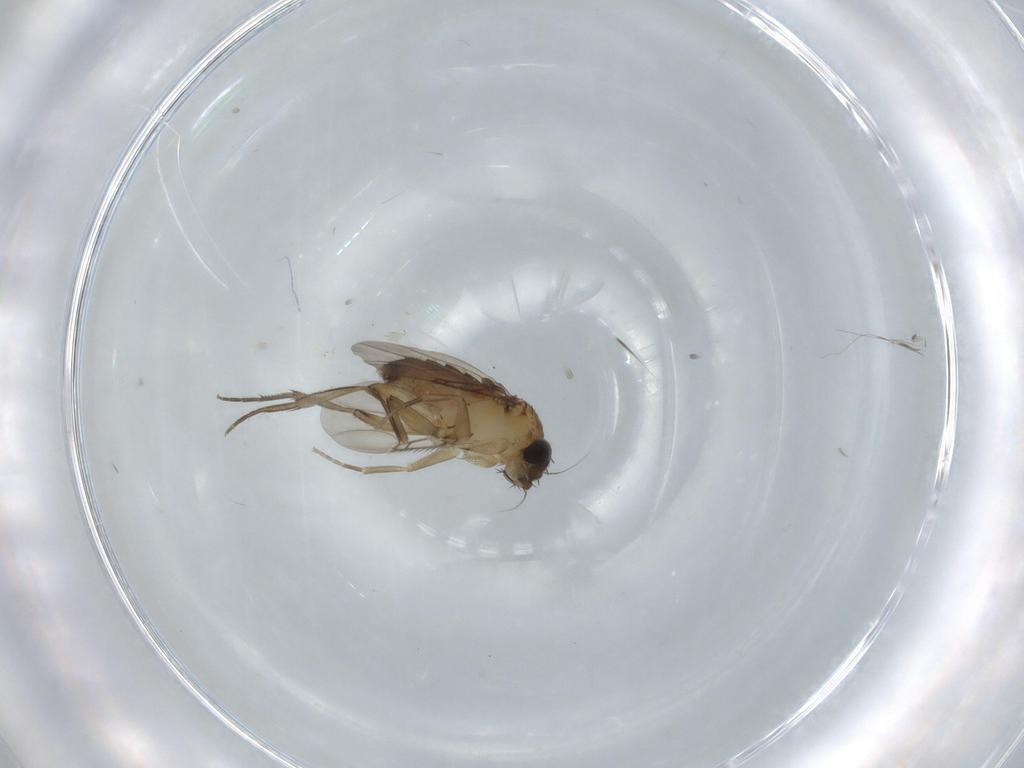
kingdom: Animalia
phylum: Arthropoda
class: Insecta
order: Diptera
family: Phoridae
